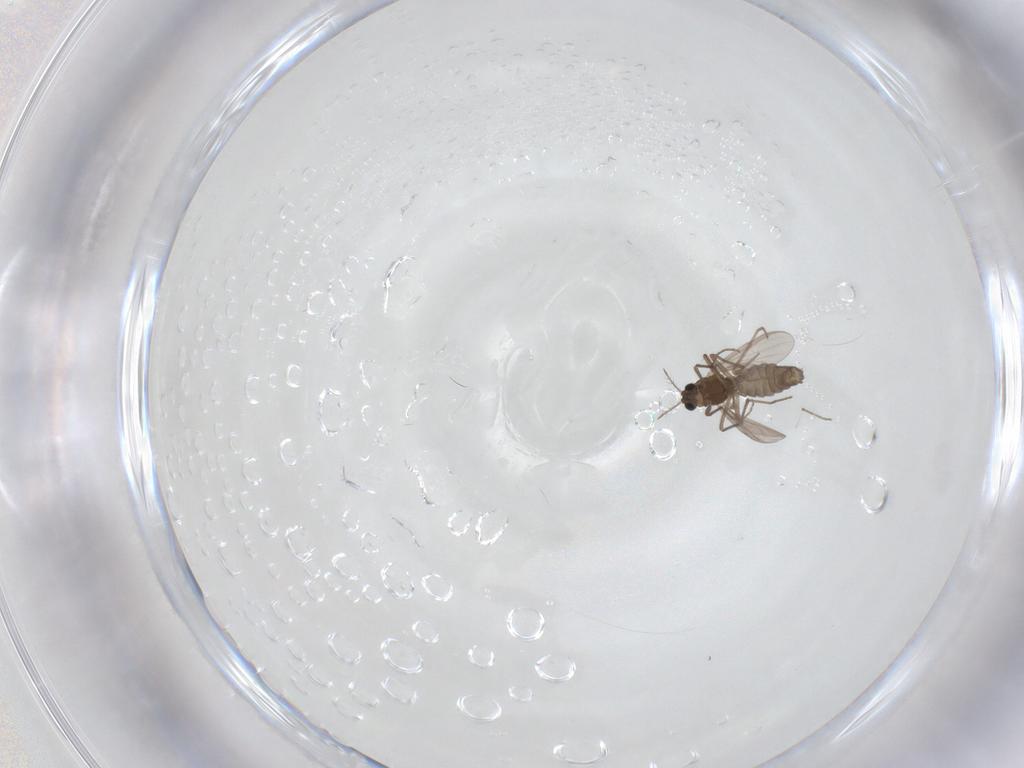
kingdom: Animalia
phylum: Arthropoda
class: Insecta
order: Diptera
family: Chironomidae
